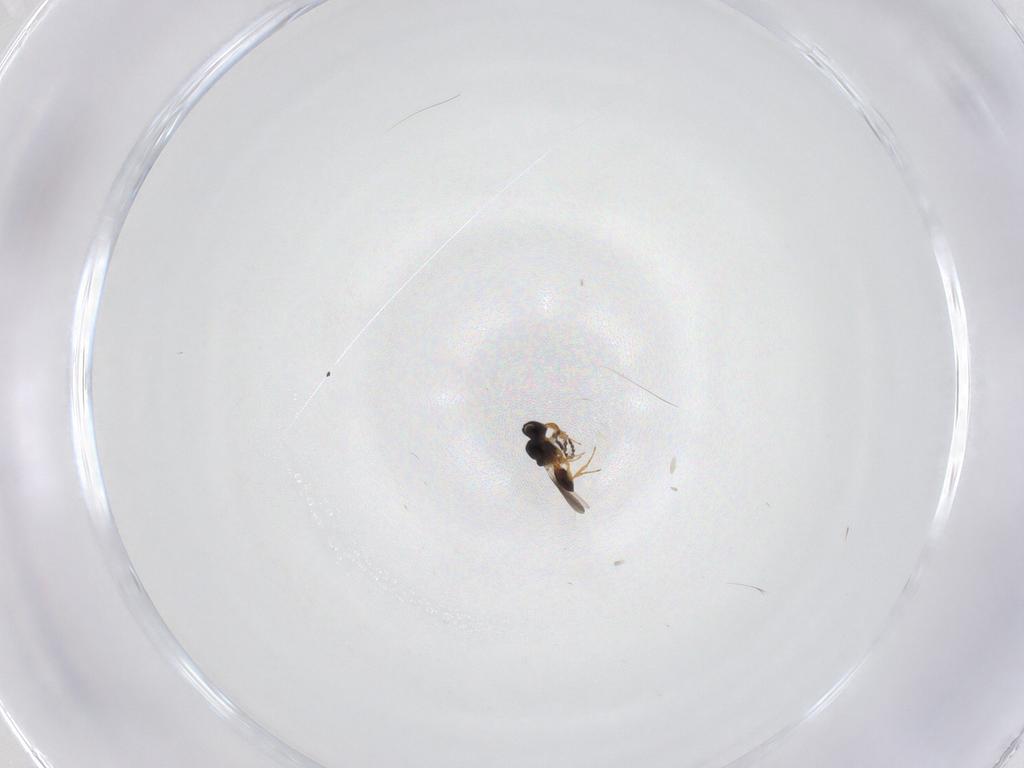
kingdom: Animalia
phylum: Arthropoda
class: Insecta
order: Hymenoptera
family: Platygastridae
